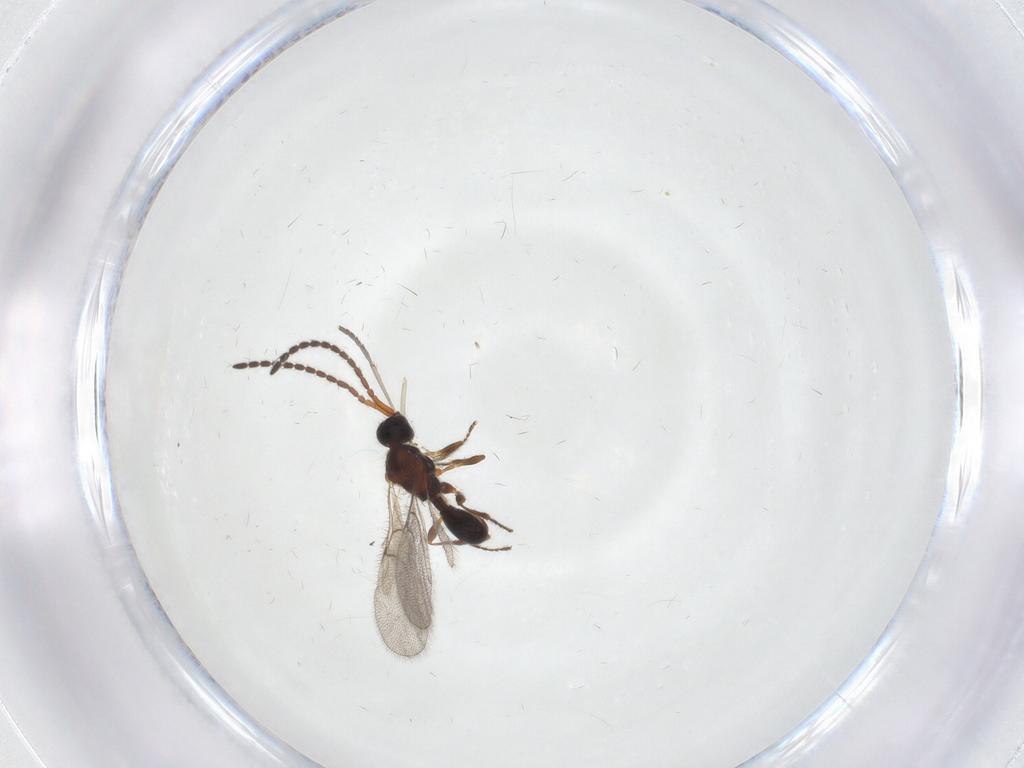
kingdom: Animalia
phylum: Arthropoda
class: Insecta
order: Hymenoptera
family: Diapriidae
